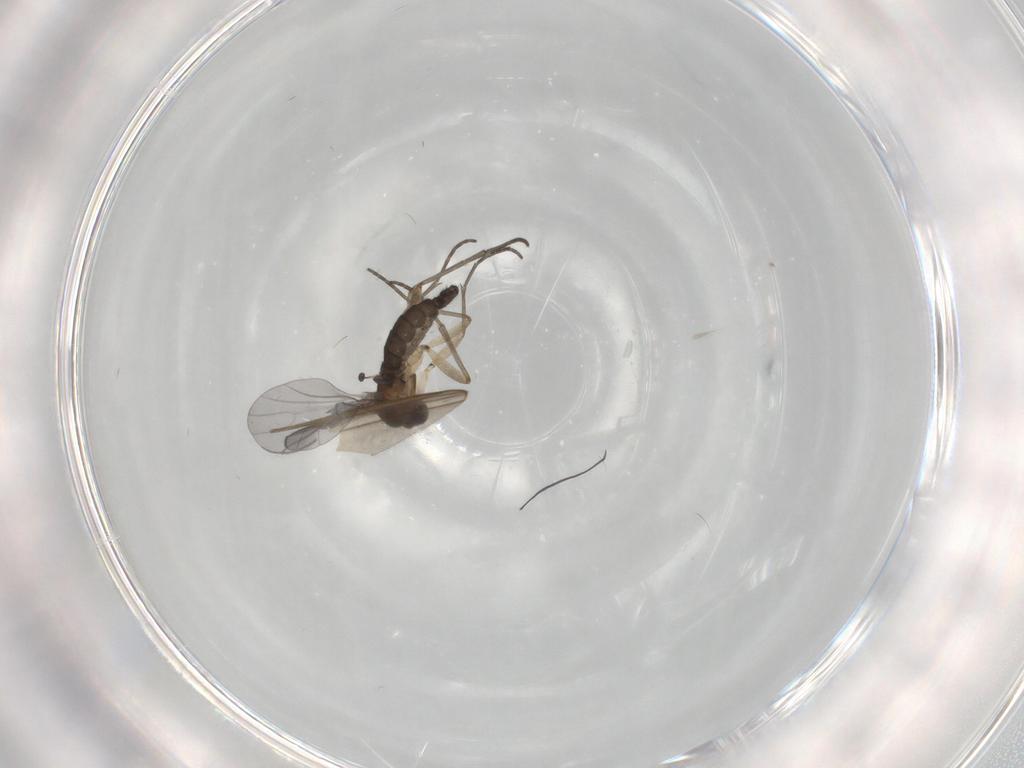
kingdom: Animalia
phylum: Arthropoda
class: Insecta
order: Diptera
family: Sciaridae
